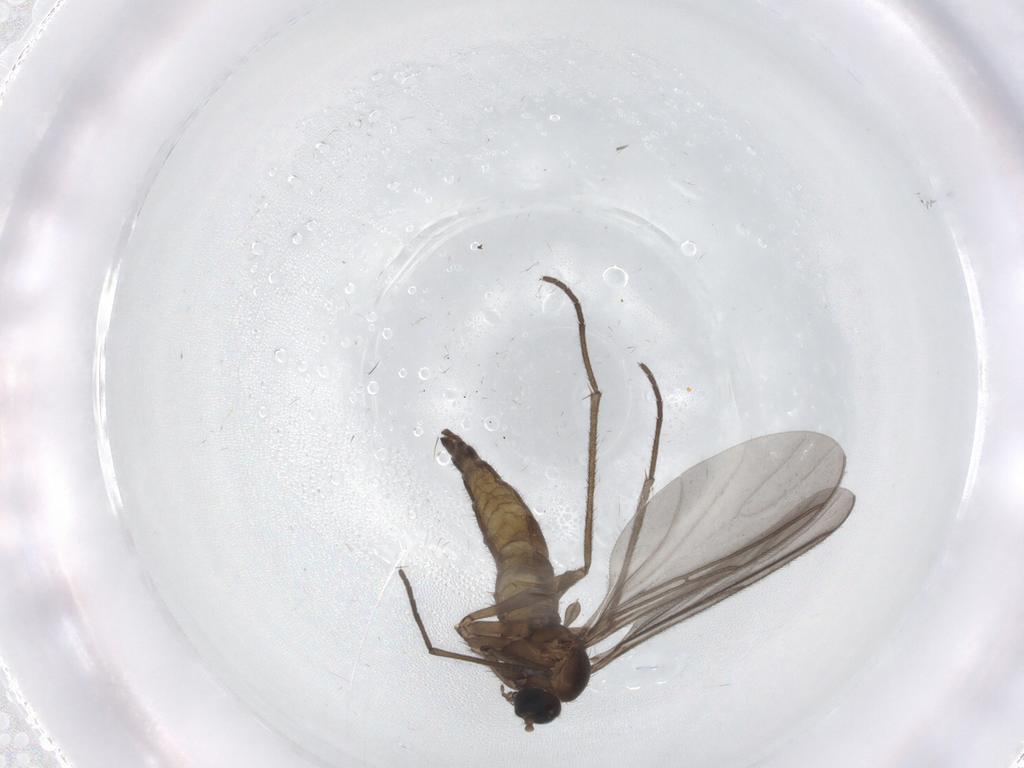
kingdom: Animalia
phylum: Arthropoda
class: Insecta
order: Diptera
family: Sciaridae
